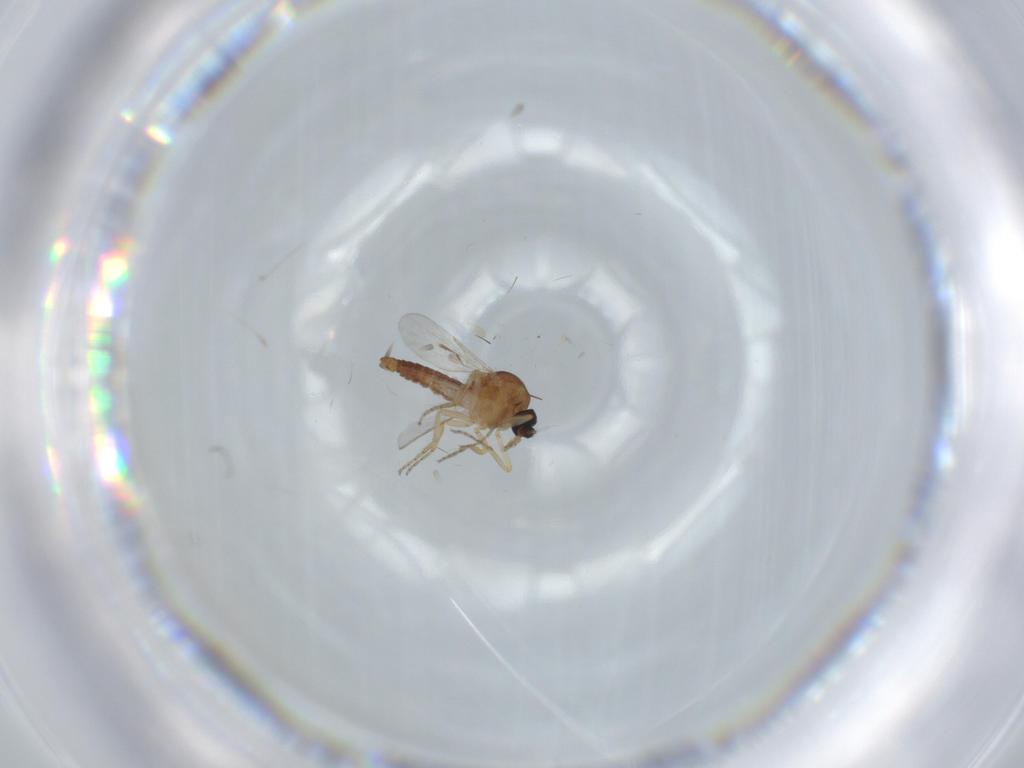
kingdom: Animalia
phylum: Arthropoda
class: Insecta
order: Diptera
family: Ceratopogonidae
